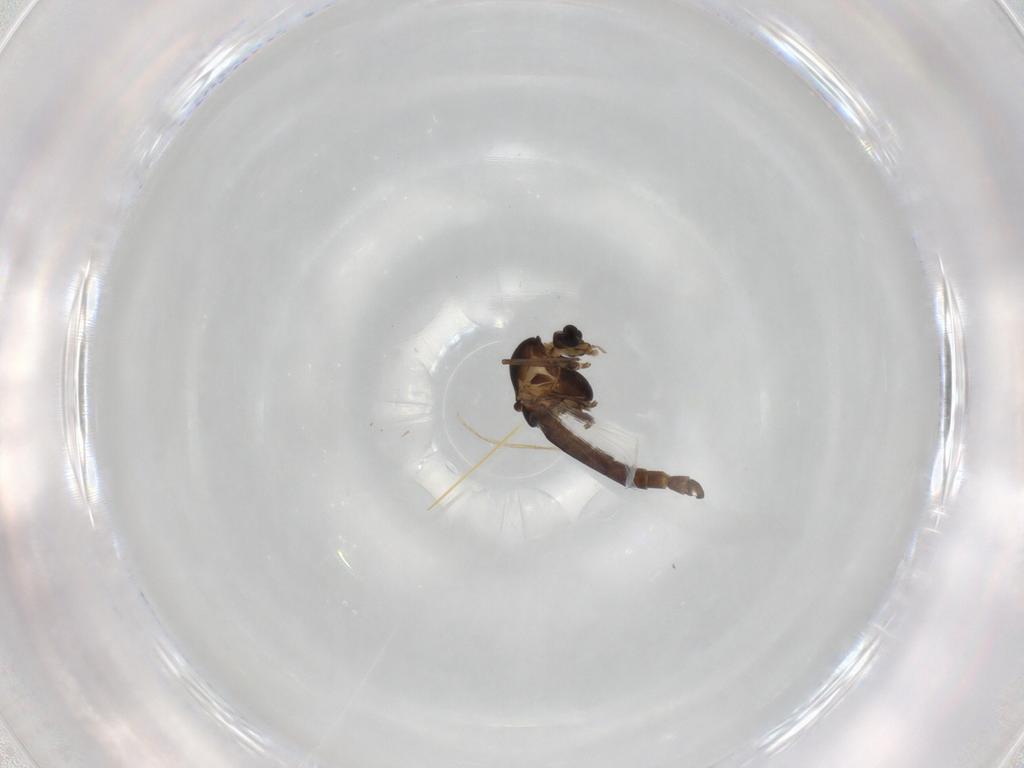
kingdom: Animalia
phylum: Arthropoda
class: Insecta
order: Diptera
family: Chironomidae
